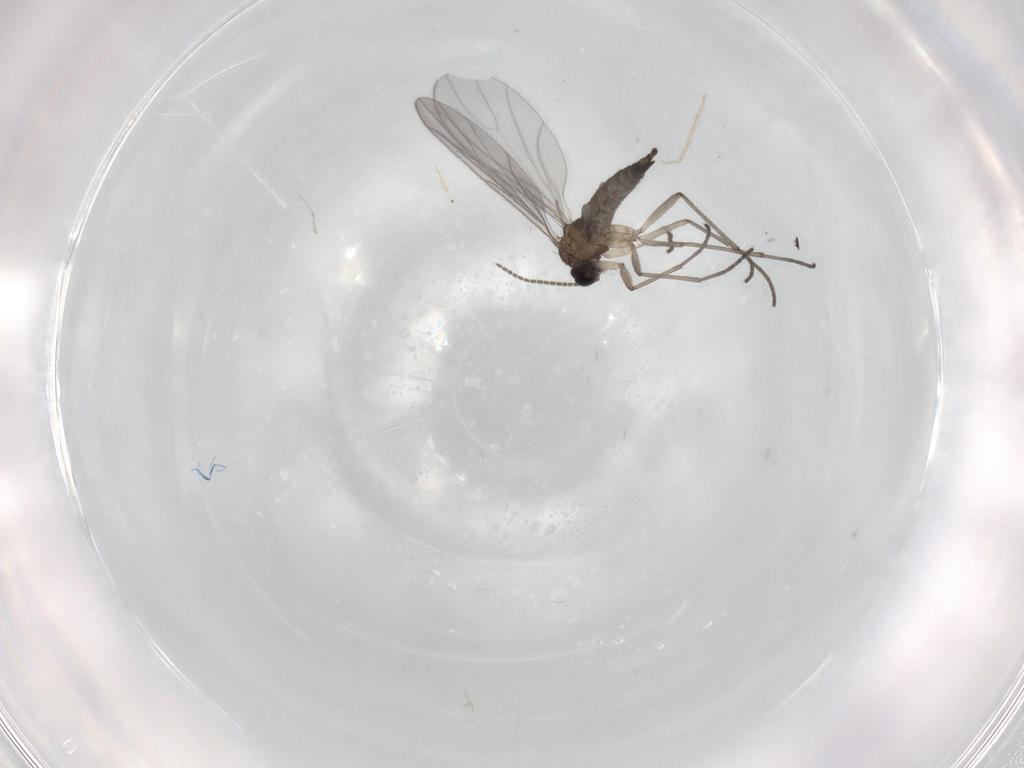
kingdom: Animalia
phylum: Arthropoda
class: Insecta
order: Diptera
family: Sciaridae
